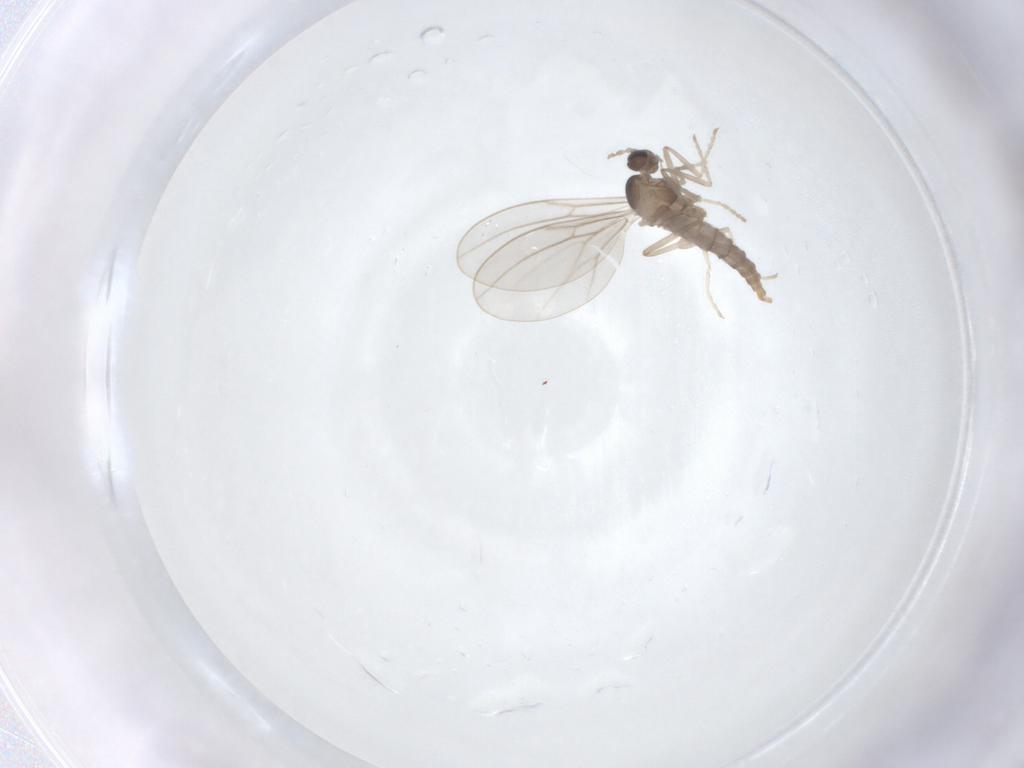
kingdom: Animalia
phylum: Arthropoda
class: Insecta
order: Diptera
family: Cecidomyiidae
